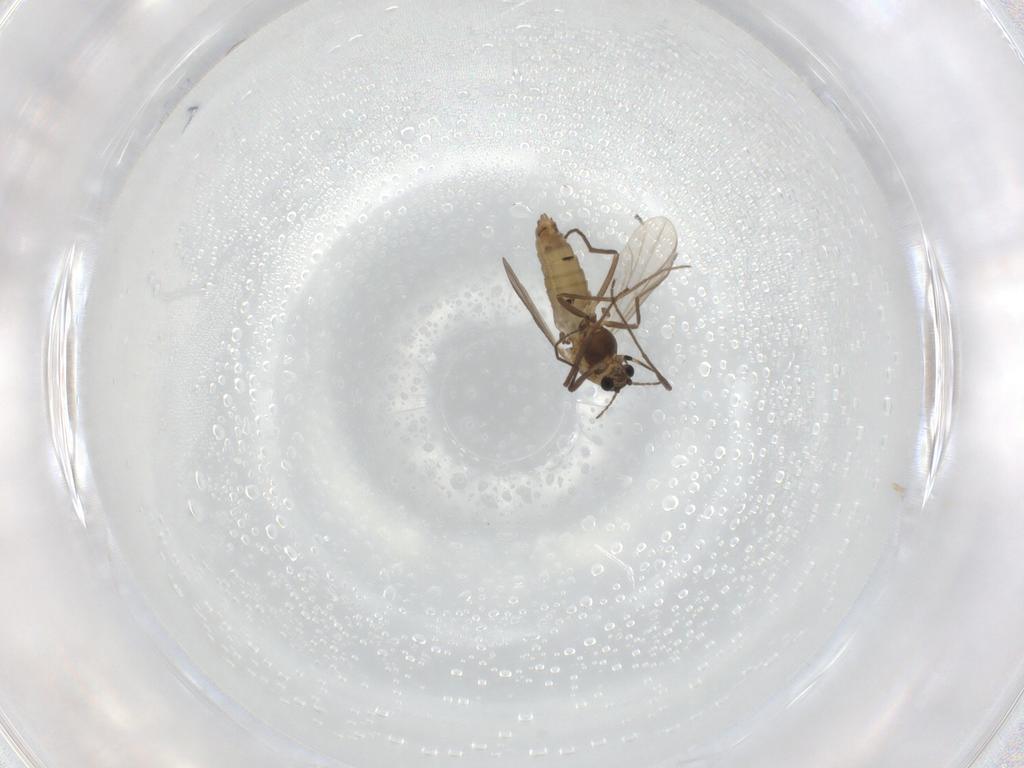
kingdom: Animalia
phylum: Arthropoda
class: Insecta
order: Diptera
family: Chironomidae
